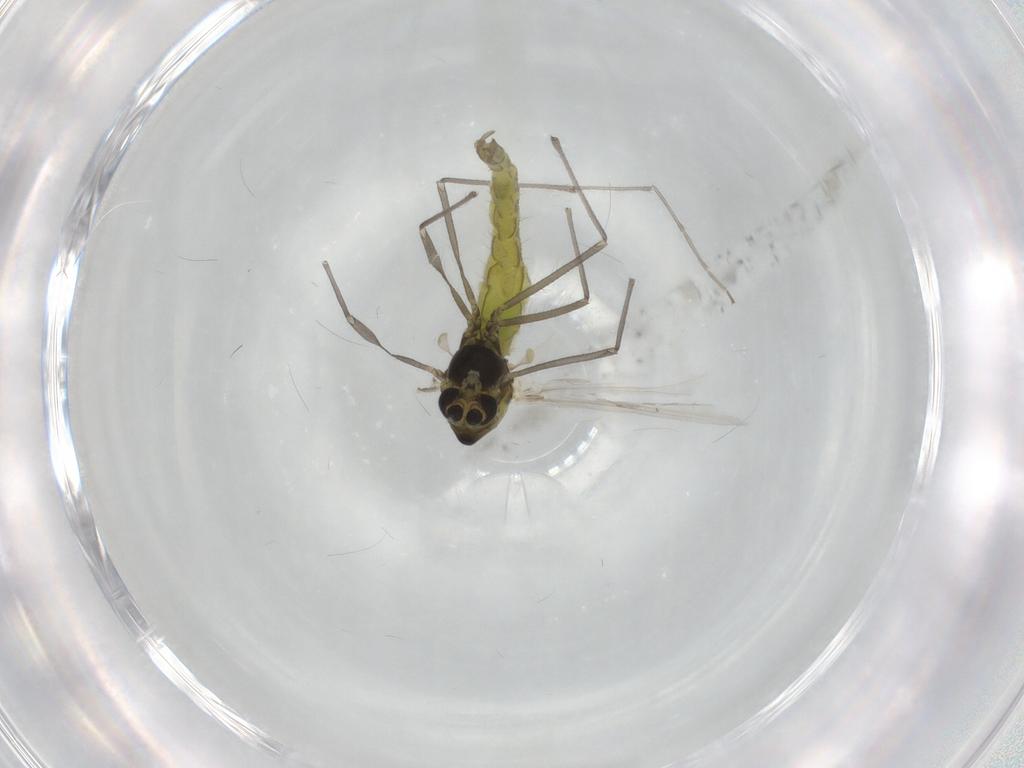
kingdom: Animalia
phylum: Arthropoda
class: Insecta
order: Diptera
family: Chironomidae
